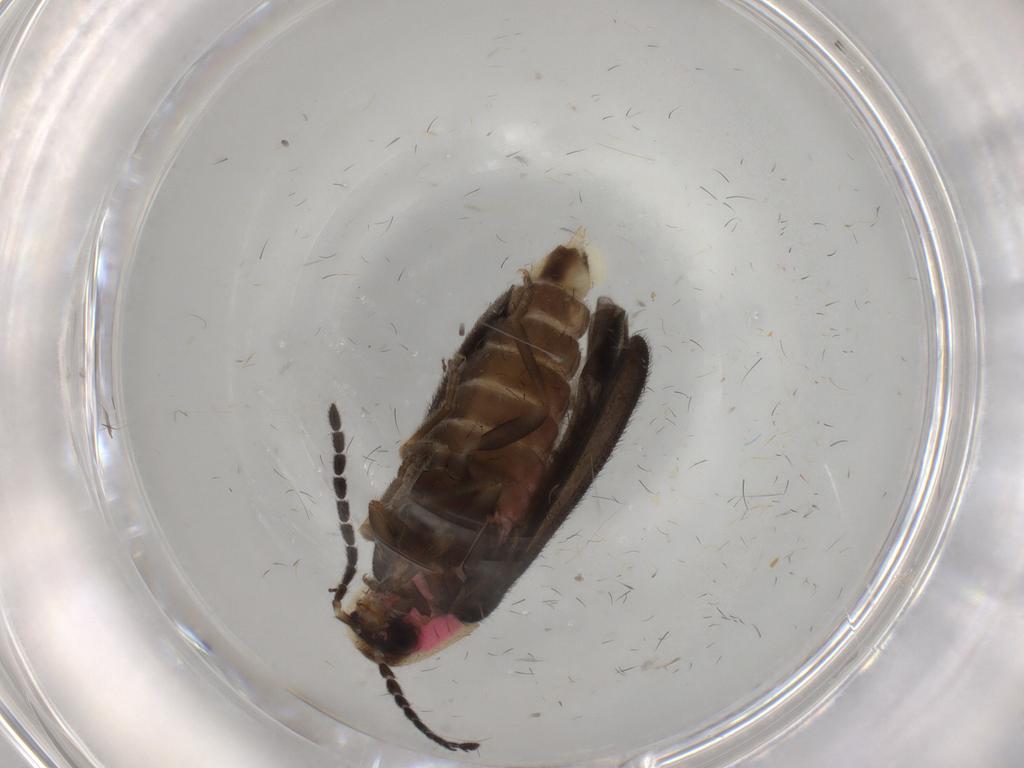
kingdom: Animalia
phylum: Arthropoda
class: Insecta
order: Coleoptera
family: Lampyridae
